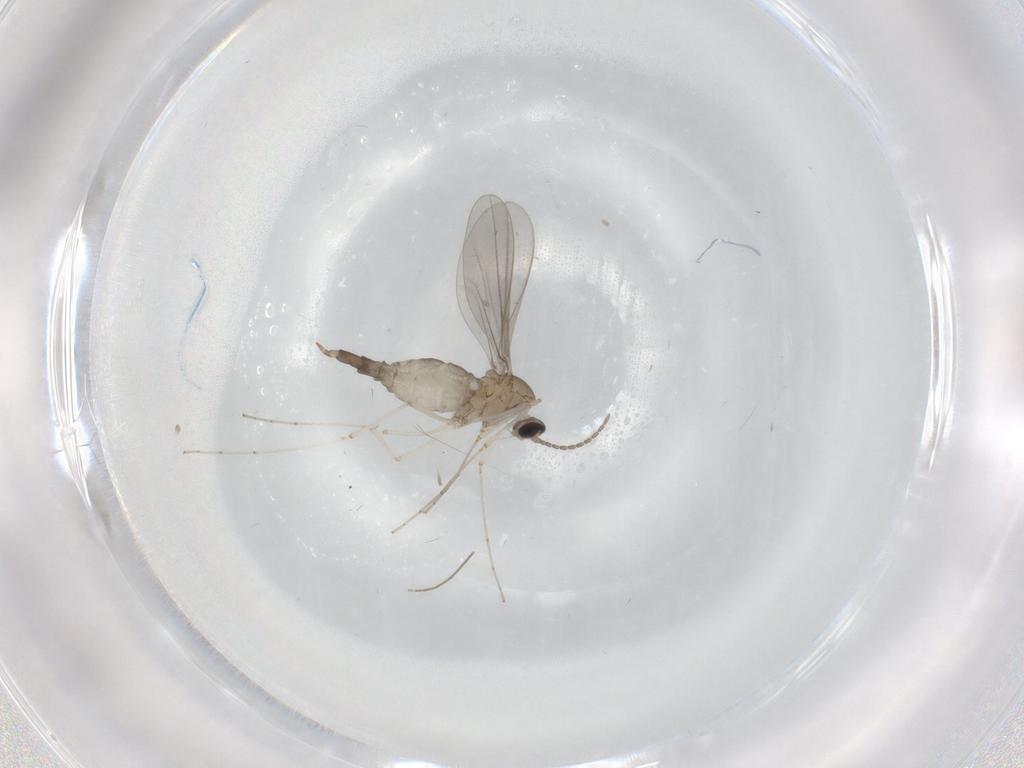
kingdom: Animalia
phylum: Arthropoda
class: Insecta
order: Diptera
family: Cecidomyiidae
